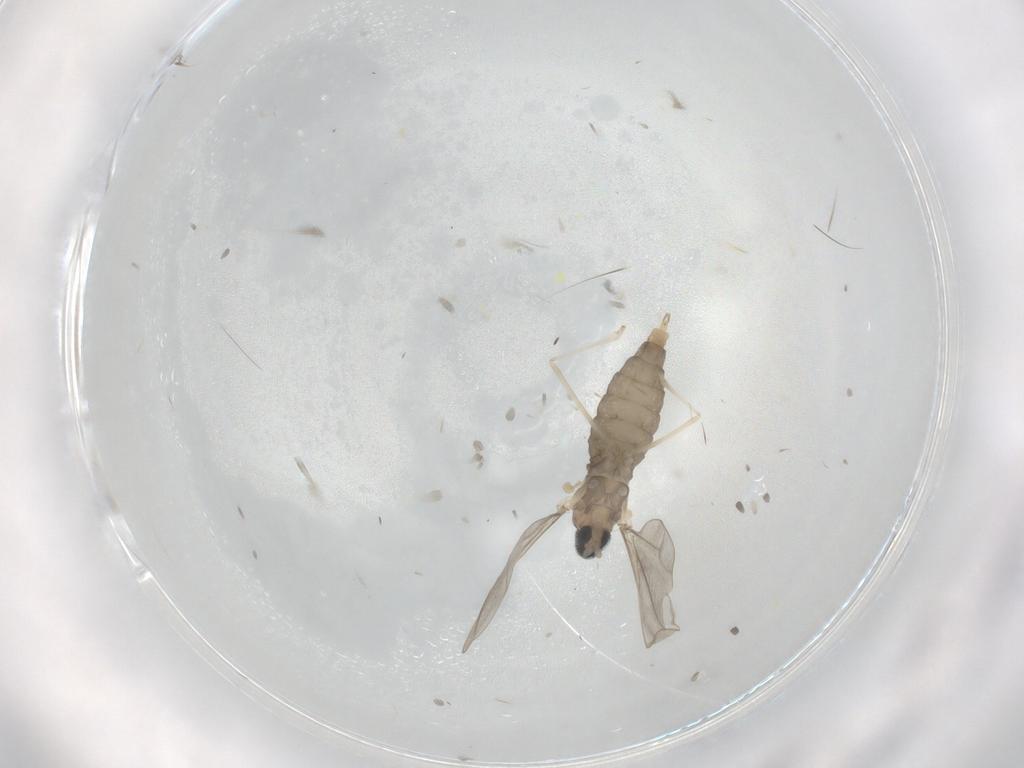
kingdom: Animalia
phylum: Arthropoda
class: Insecta
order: Diptera
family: Cecidomyiidae
